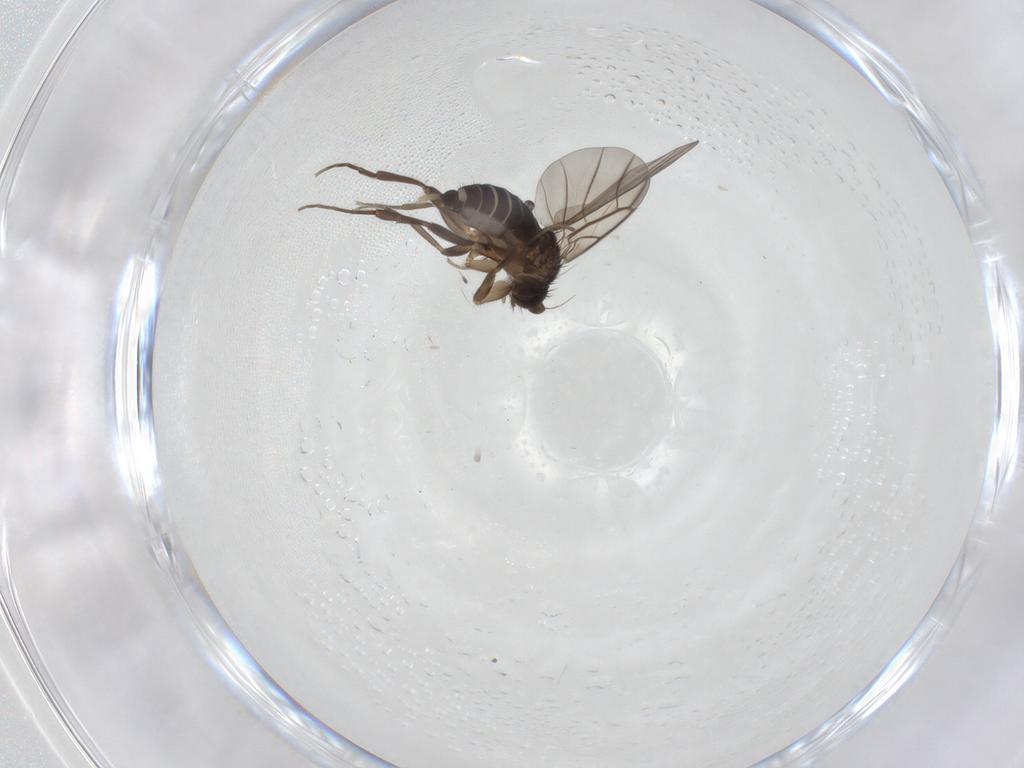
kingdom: Animalia
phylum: Arthropoda
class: Insecta
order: Diptera
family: Phoridae
